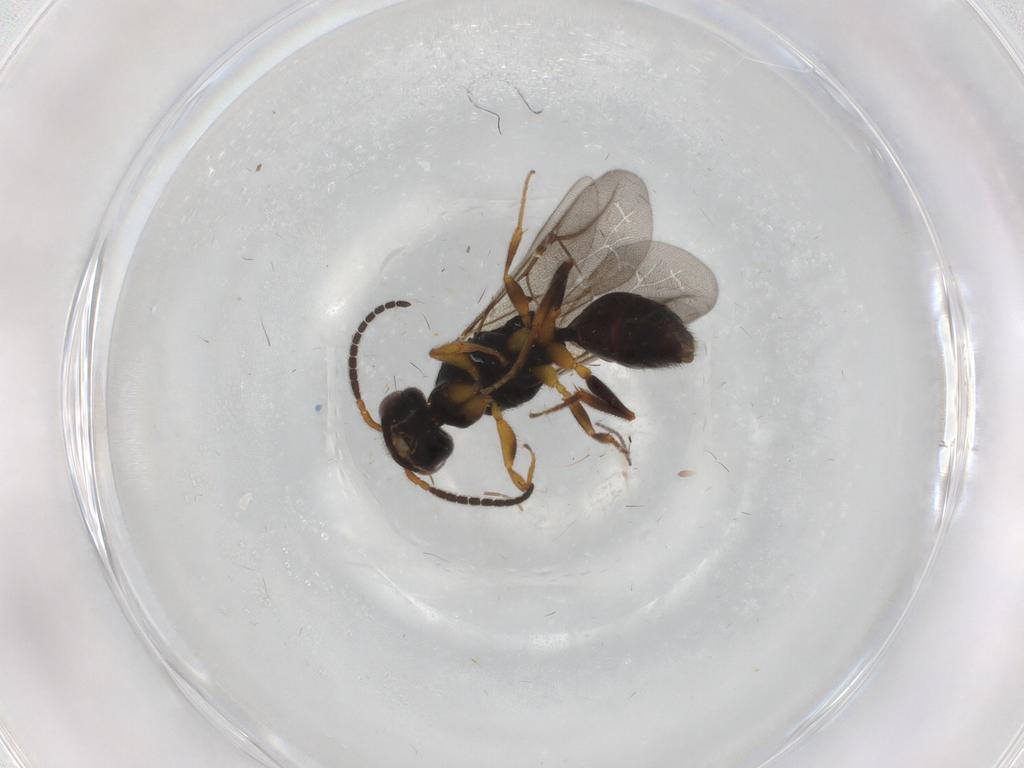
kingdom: Animalia
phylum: Arthropoda
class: Insecta
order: Hymenoptera
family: Bethylidae
